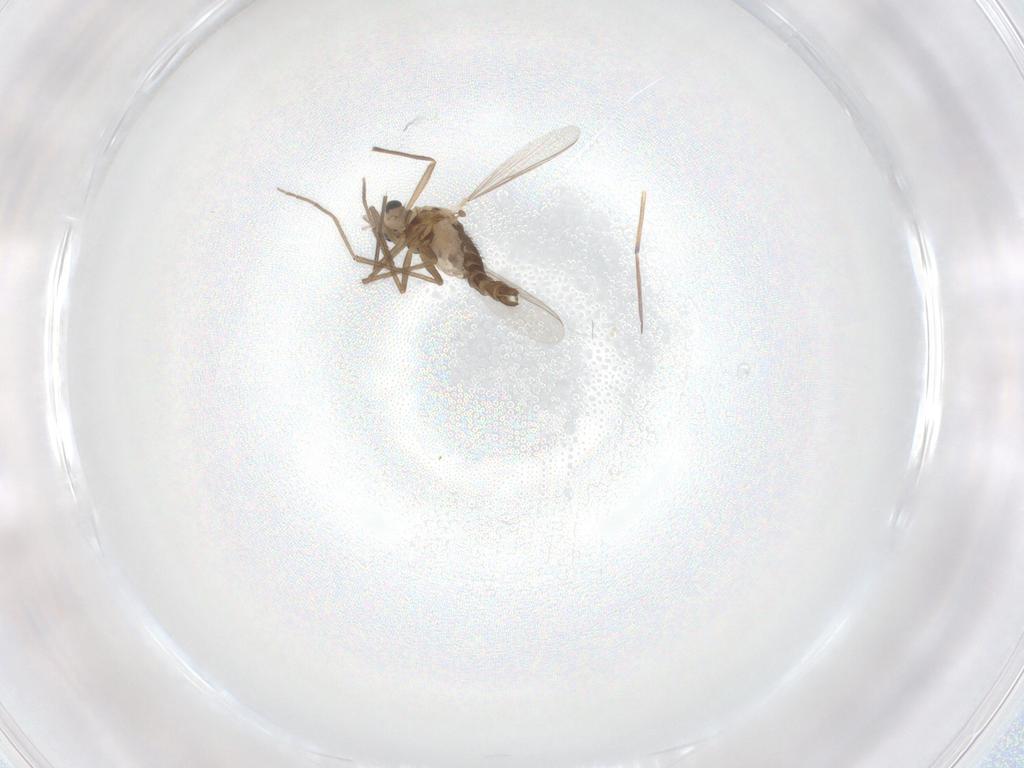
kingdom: Animalia
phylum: Arthropoda
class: Insecta
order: Diptera
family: Chironomidae
